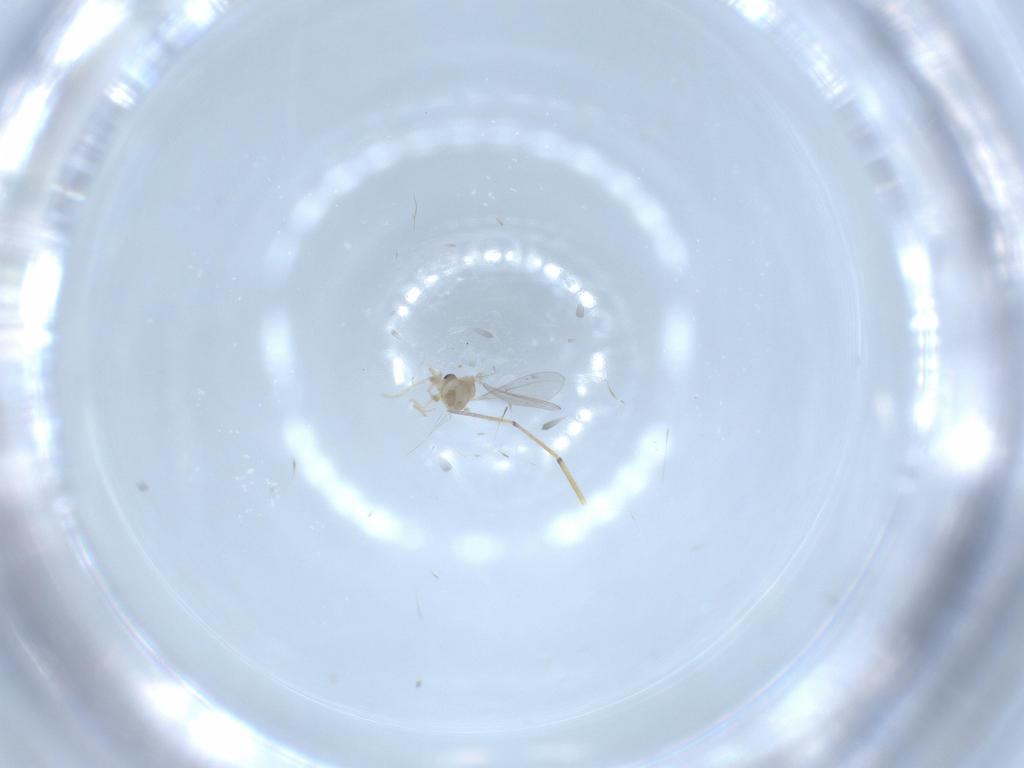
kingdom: Animalia
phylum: Arthropoda
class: Insecta
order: Diptera
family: Cecidomyiidae
